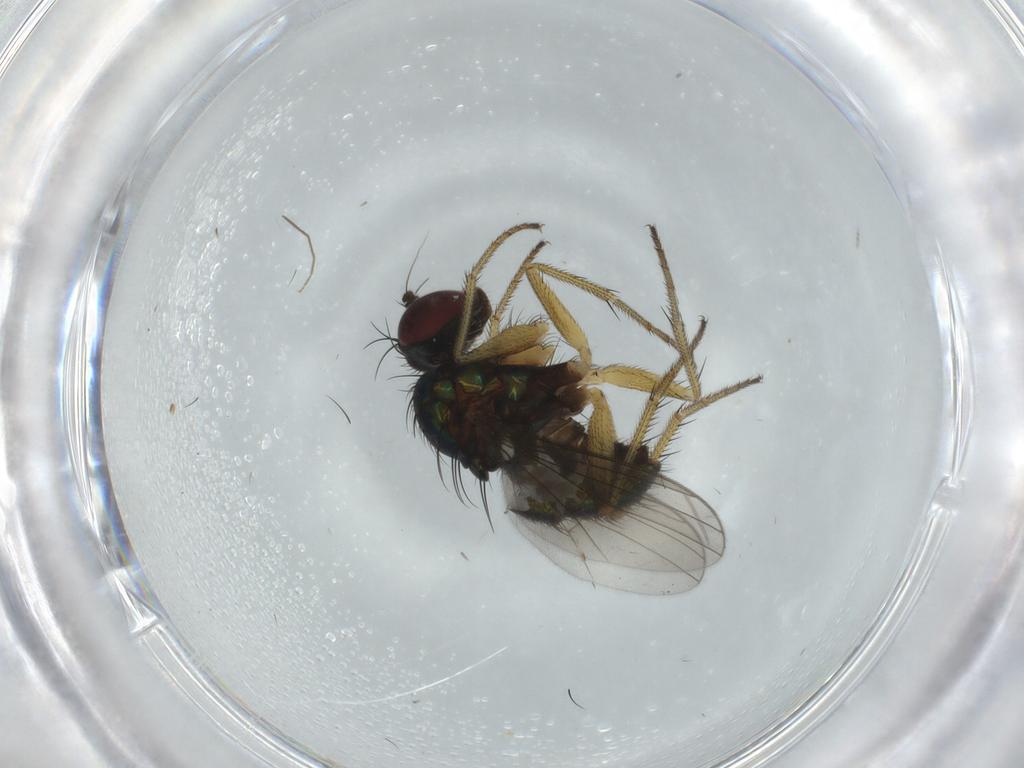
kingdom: Animalia
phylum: Arthropoda
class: Insecta
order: Diptera
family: Dolichopodidae
